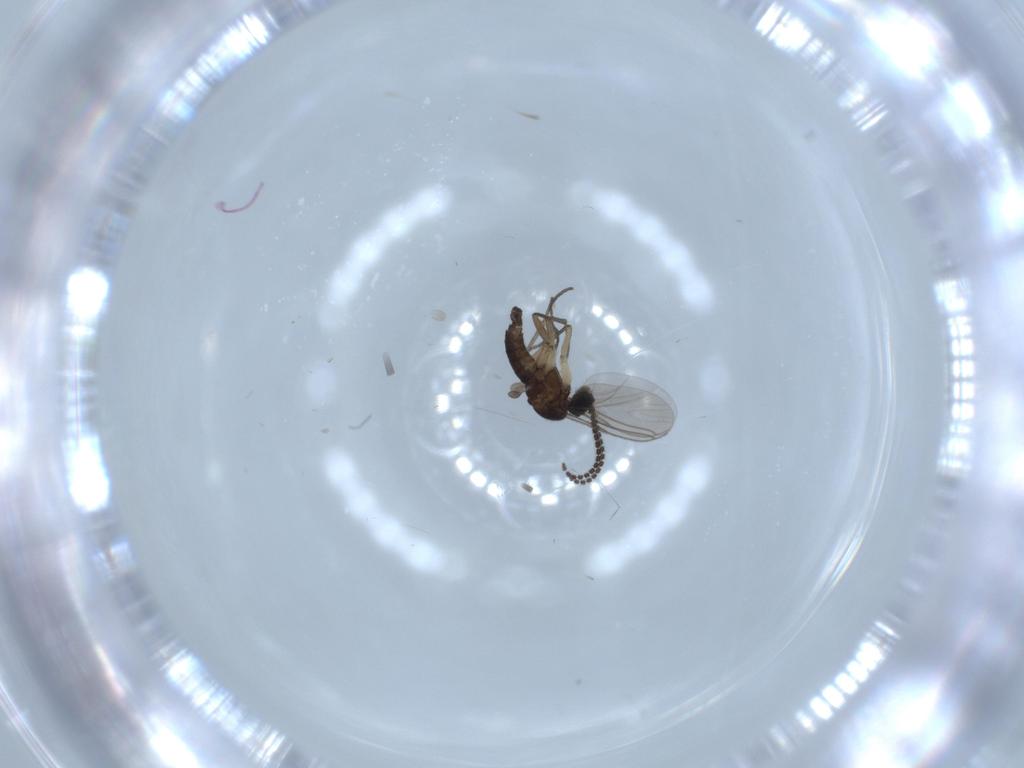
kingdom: Animalia
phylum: Arthropoda
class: Insecta
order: Diptera
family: Sciaridae
